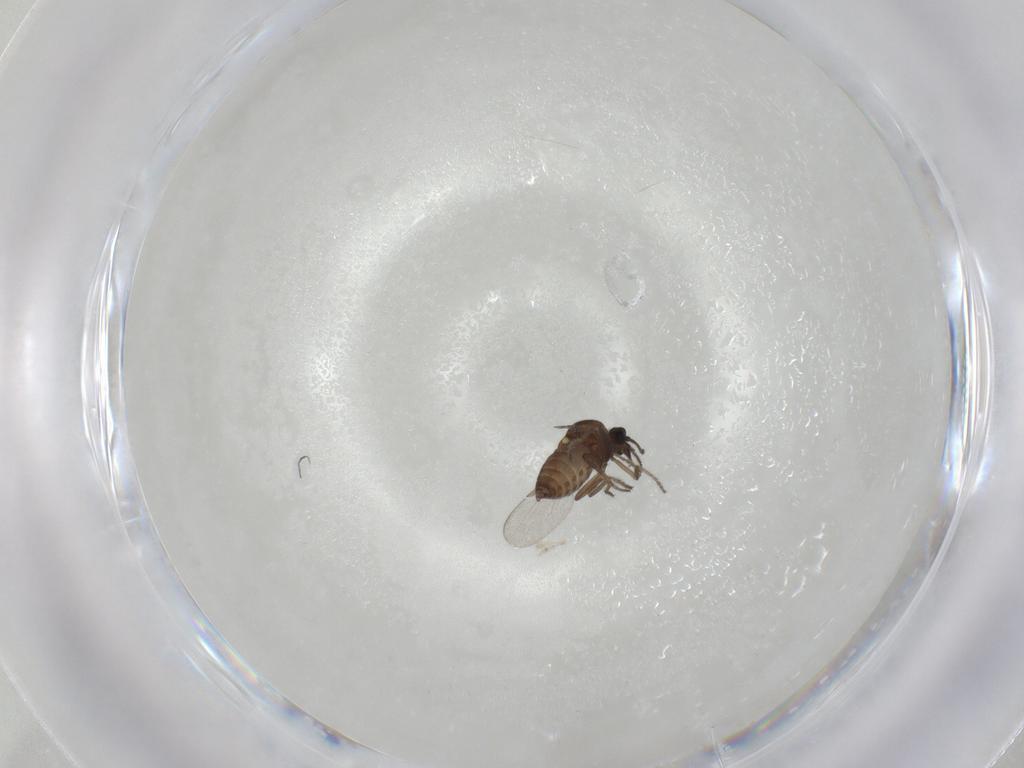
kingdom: Animalia
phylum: Arthropoda
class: Insecta
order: Diptera
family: Ceratopogonidae
